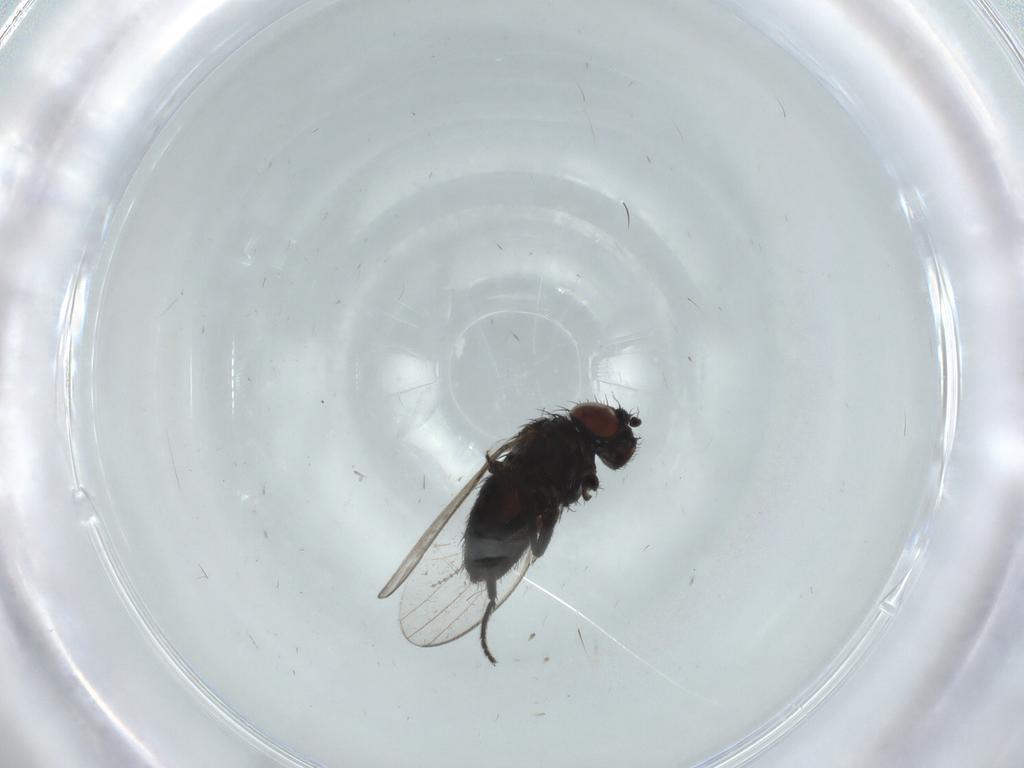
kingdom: Animalia
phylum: Arthropoda
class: Insecta
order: Diptera
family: Milichiidae
